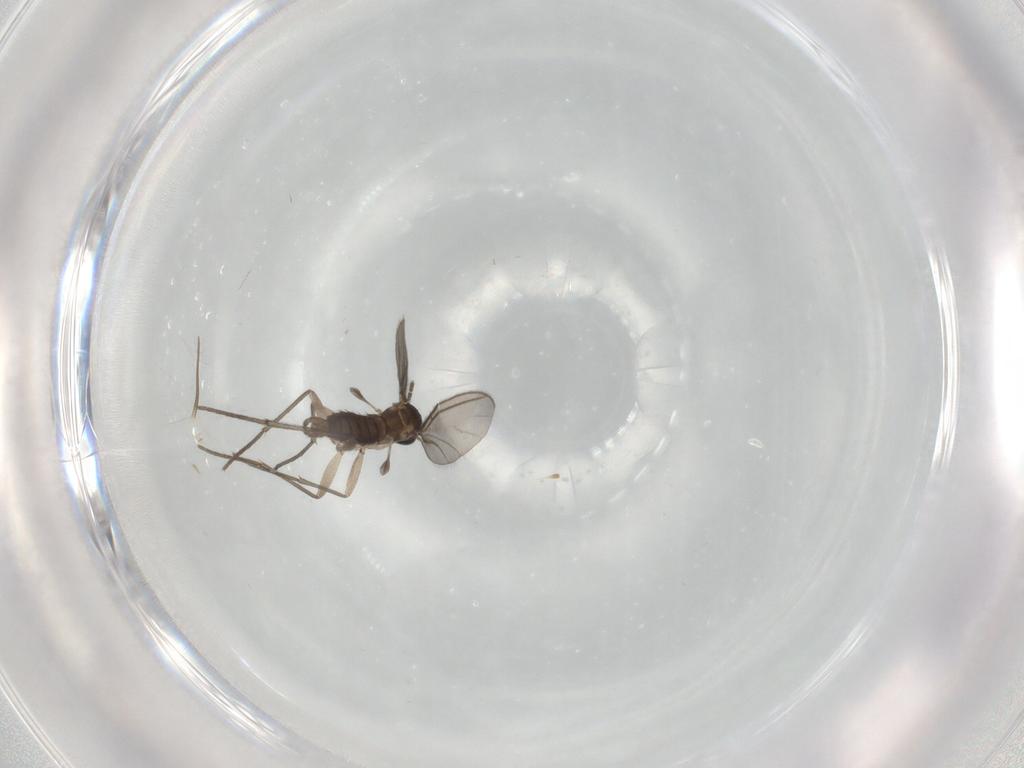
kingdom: Animalia
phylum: Arthropoda
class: Insecta
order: Diptera
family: Sciaridae
